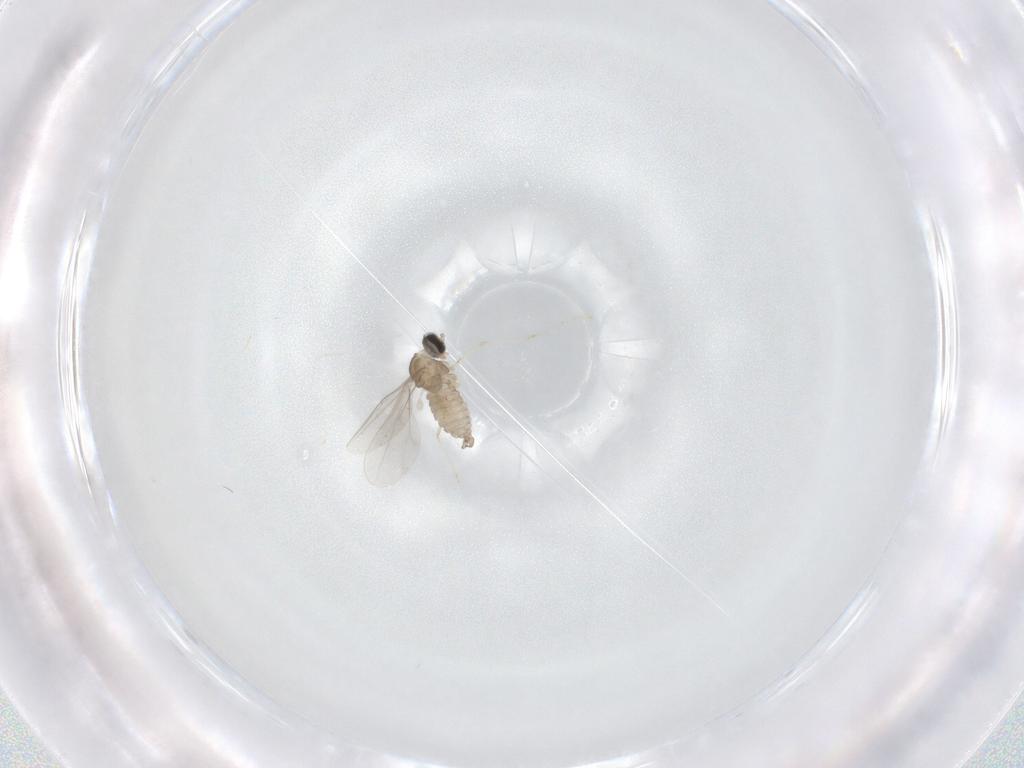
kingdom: Animalia
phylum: Arthropoda
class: Insecta
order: Diptera
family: Cecidomyiidae
